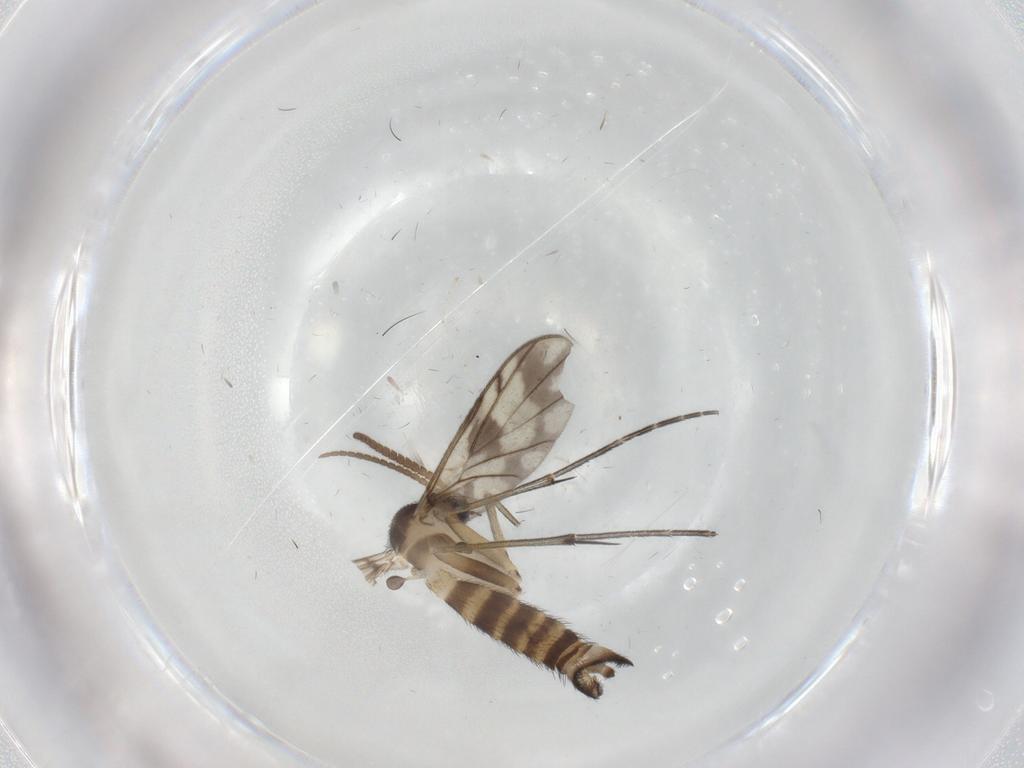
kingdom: Animalia
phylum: Arthropoda
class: Insecta
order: Diptera
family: Keroplatidae
